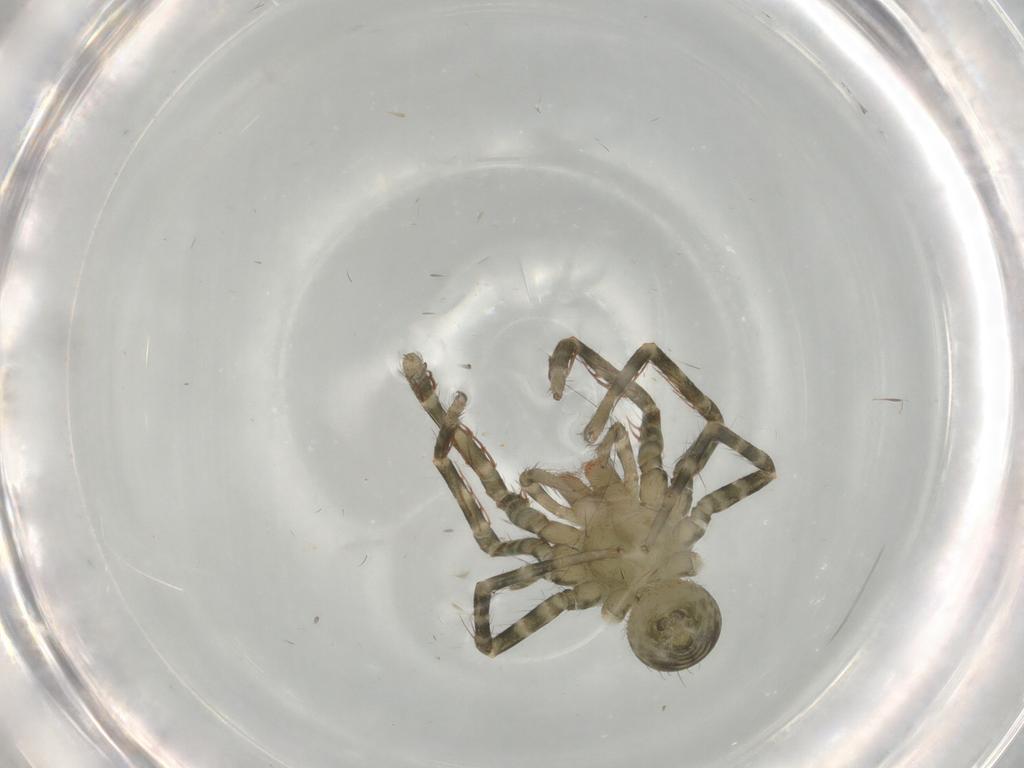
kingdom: Animalia
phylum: Arthropoda
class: Arachnida
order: Araneae
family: Ctenidae
